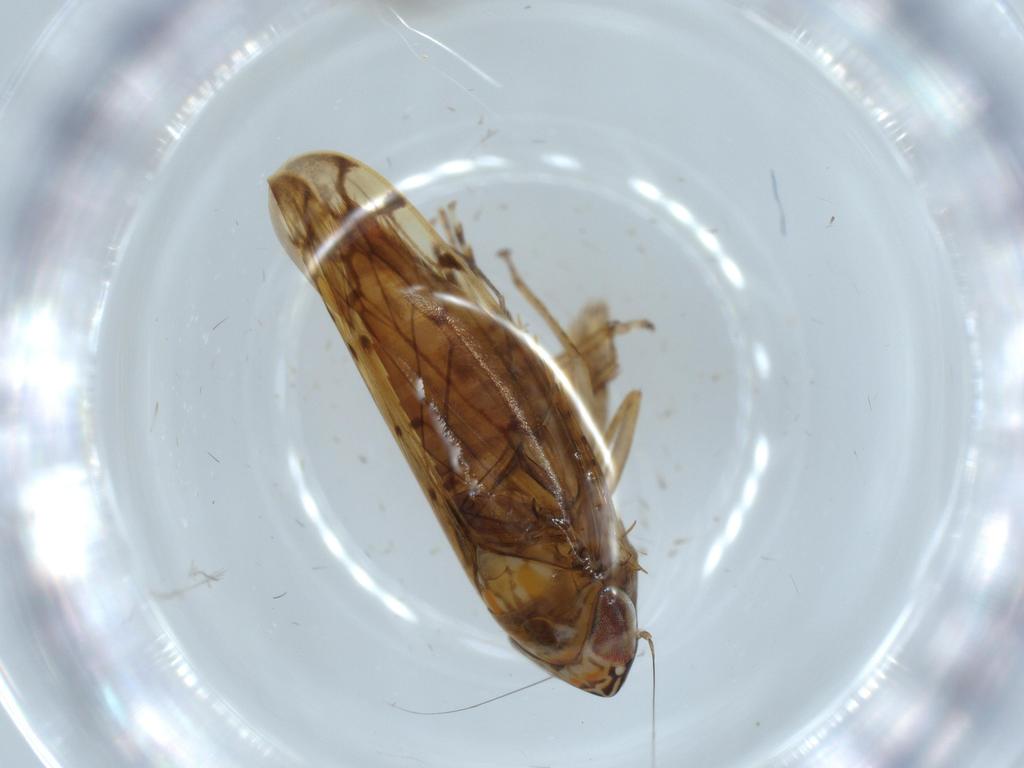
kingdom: Animalia
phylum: Arthropoda
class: Insecta
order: Hemiptera
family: Cicadellidae
